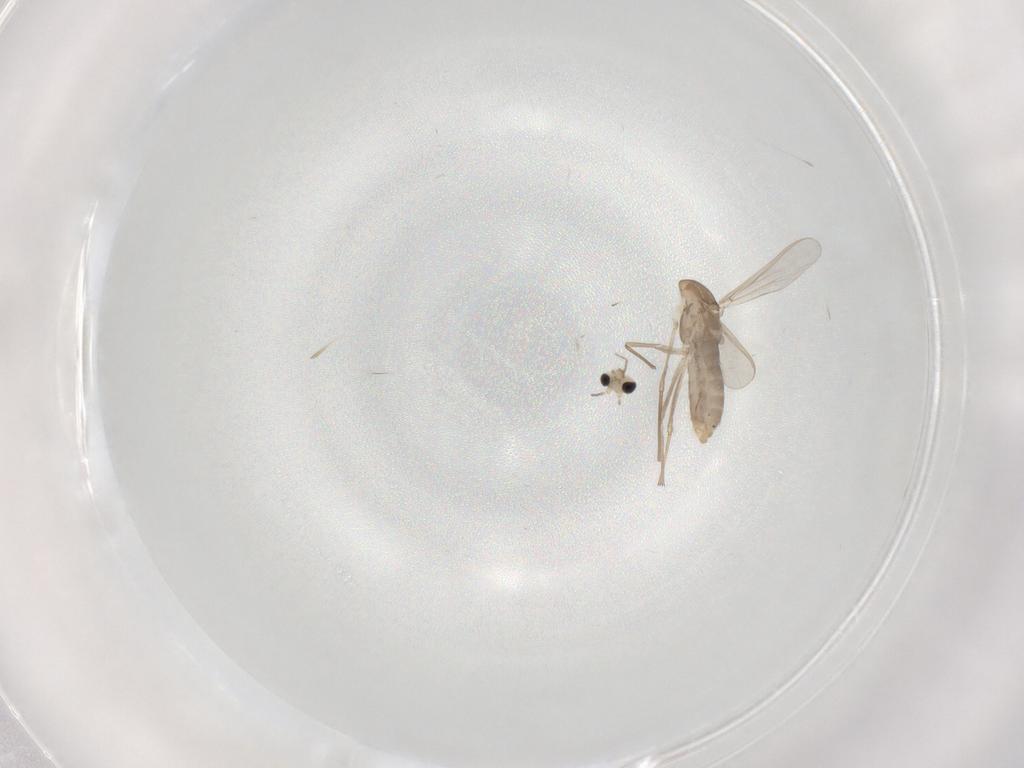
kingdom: Animalia
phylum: Arthropoda
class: Insecta
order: Diptera
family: Chironomidae
